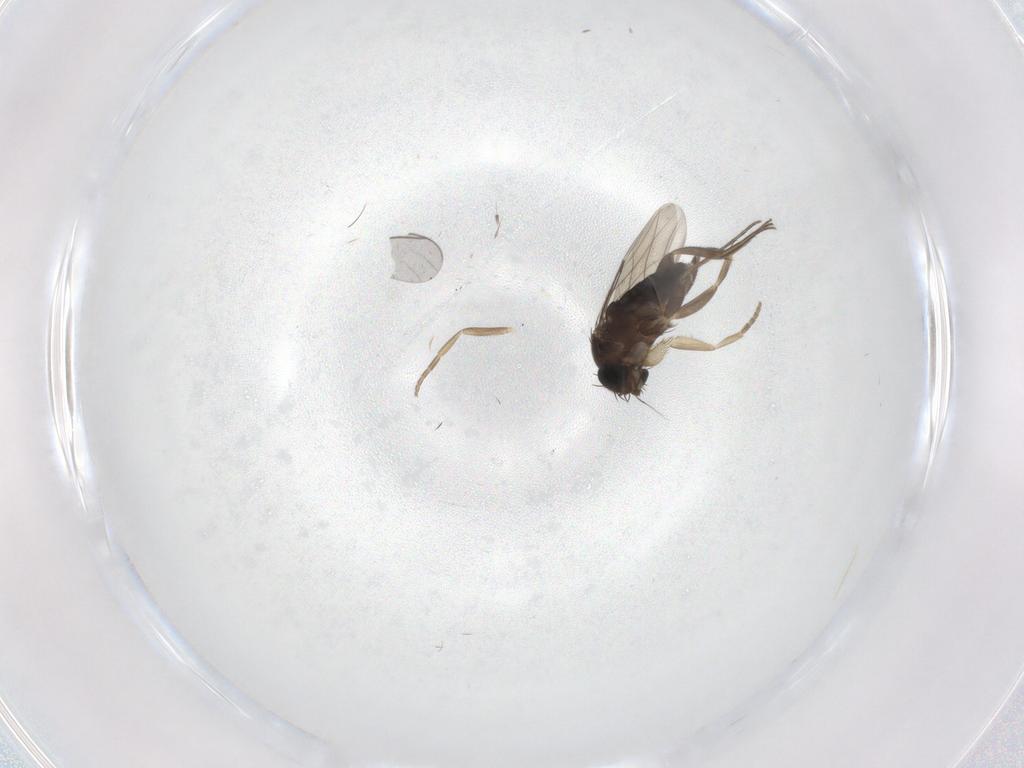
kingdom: Animalia
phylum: Arthropoda
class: Insecta
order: Diptera
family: Phoridae
